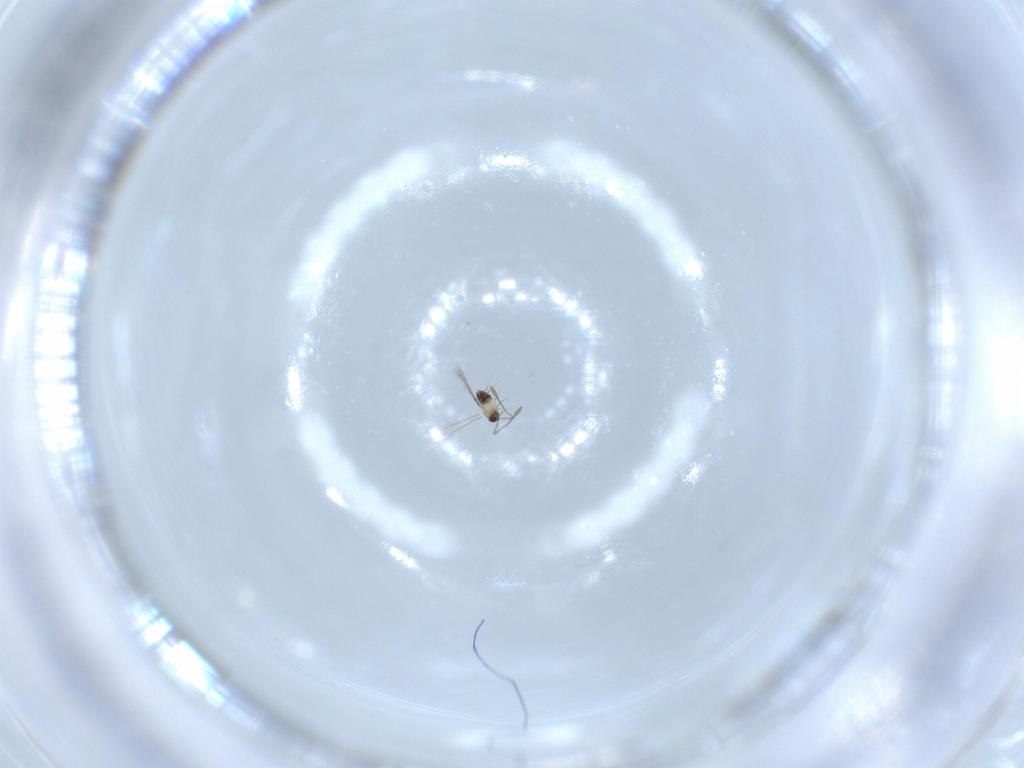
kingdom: Animalia
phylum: Arthropoda
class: Insecta
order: Hymenoptera
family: Mymaridae
